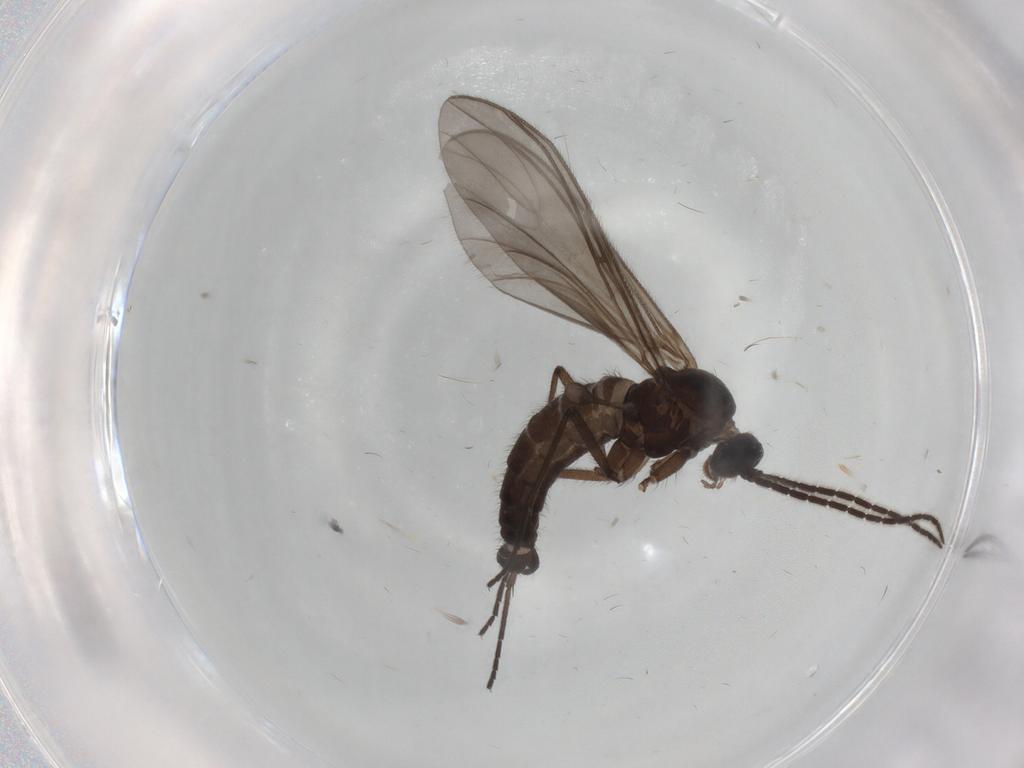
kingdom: Animalia
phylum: Arthropoda
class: Insecta
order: Diptera
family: Sciaridae
